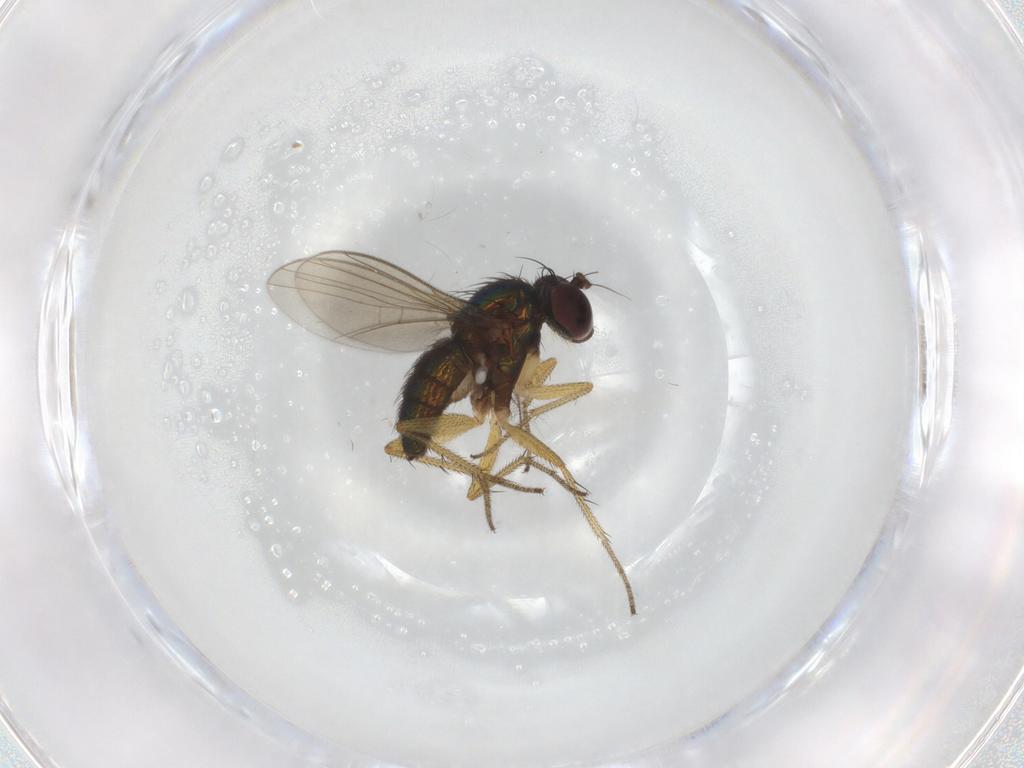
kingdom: Animalia
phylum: Arthropoda
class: Insecta
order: Diptera
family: Dolichopodidae
